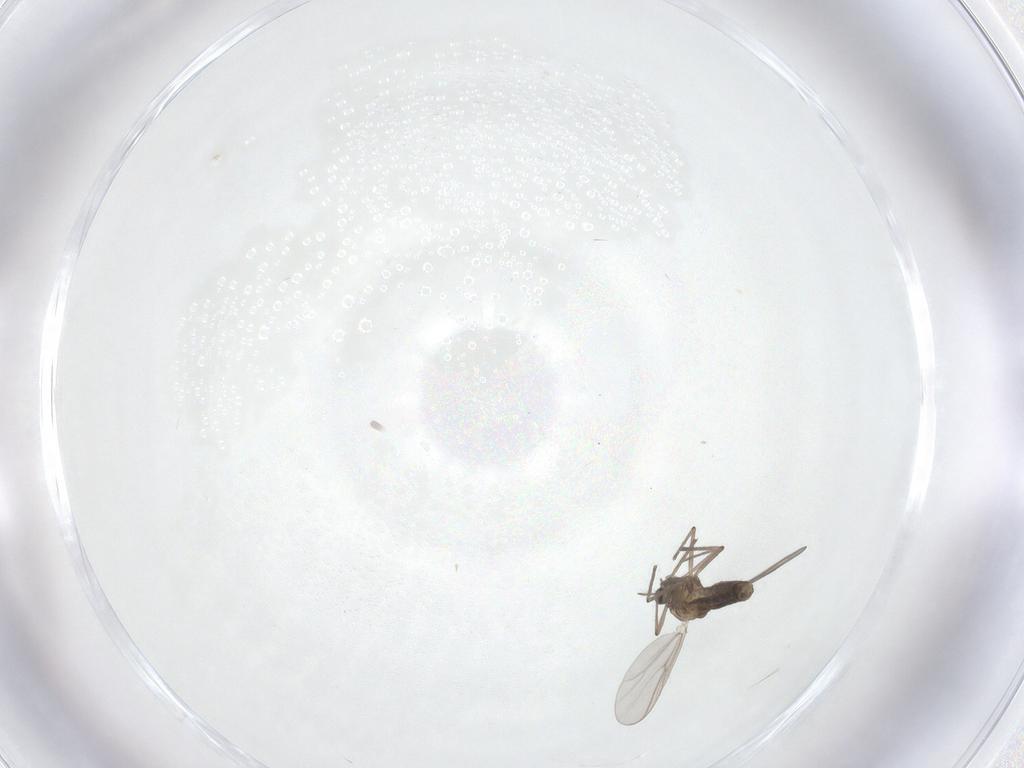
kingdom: Animalia
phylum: Arthropoda
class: Insecta
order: Diptera
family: Chironomidae
